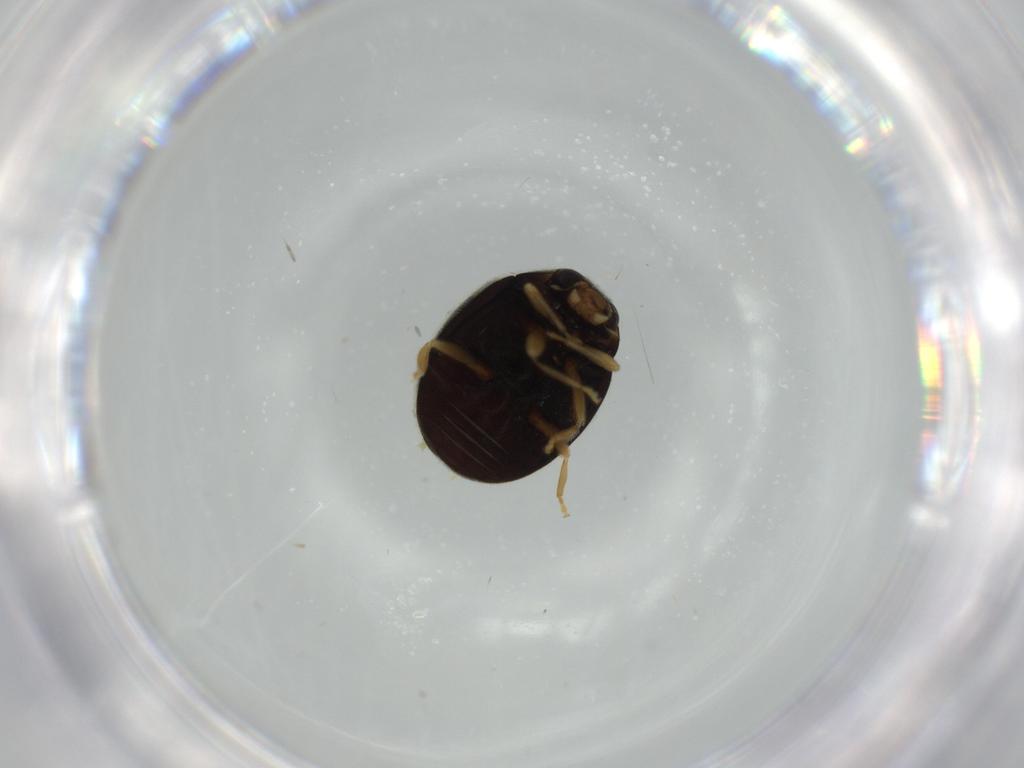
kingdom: Animalia
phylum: Arthropoda
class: Insecta
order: Coleoptera
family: Coccinellidae
